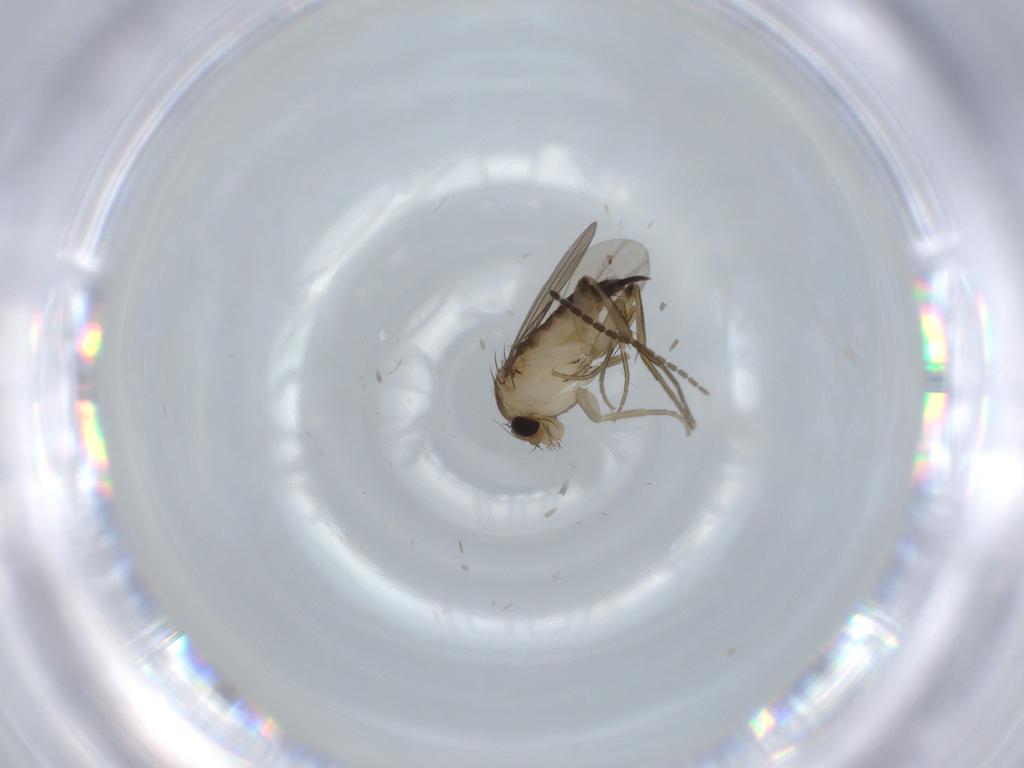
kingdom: Animalia
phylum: Arthropoda
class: Insecta
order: Diptera
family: Phoridae
